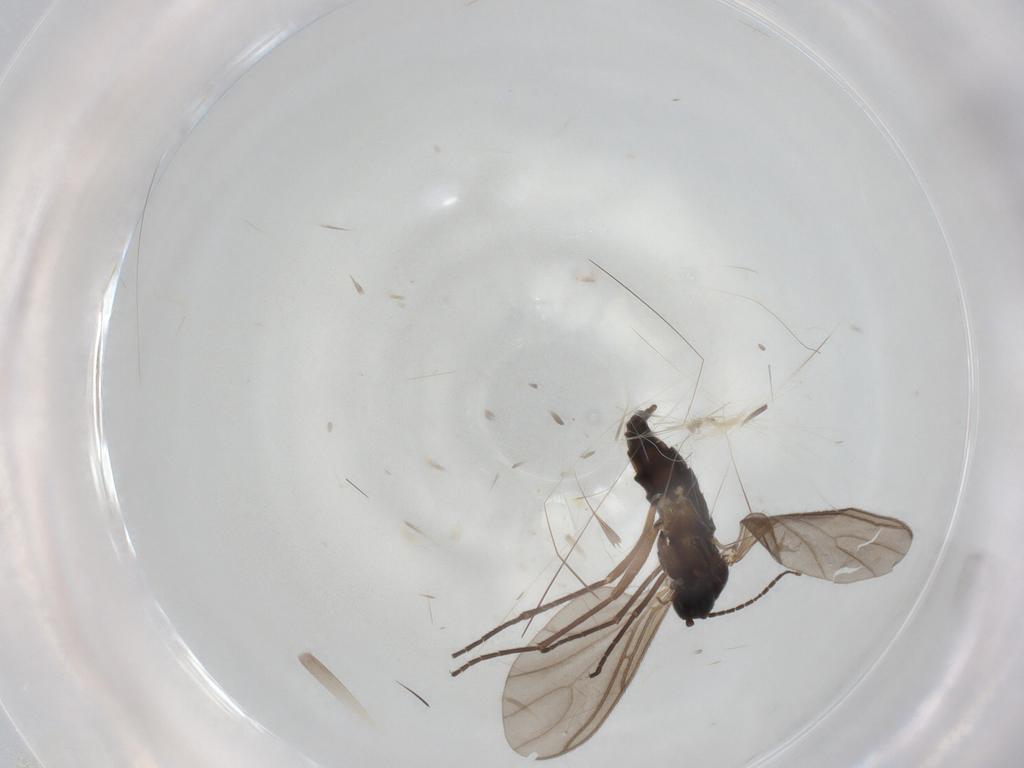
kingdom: Animalia
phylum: Arthropoda
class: Insecta
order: Diptera
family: Sciaridae
